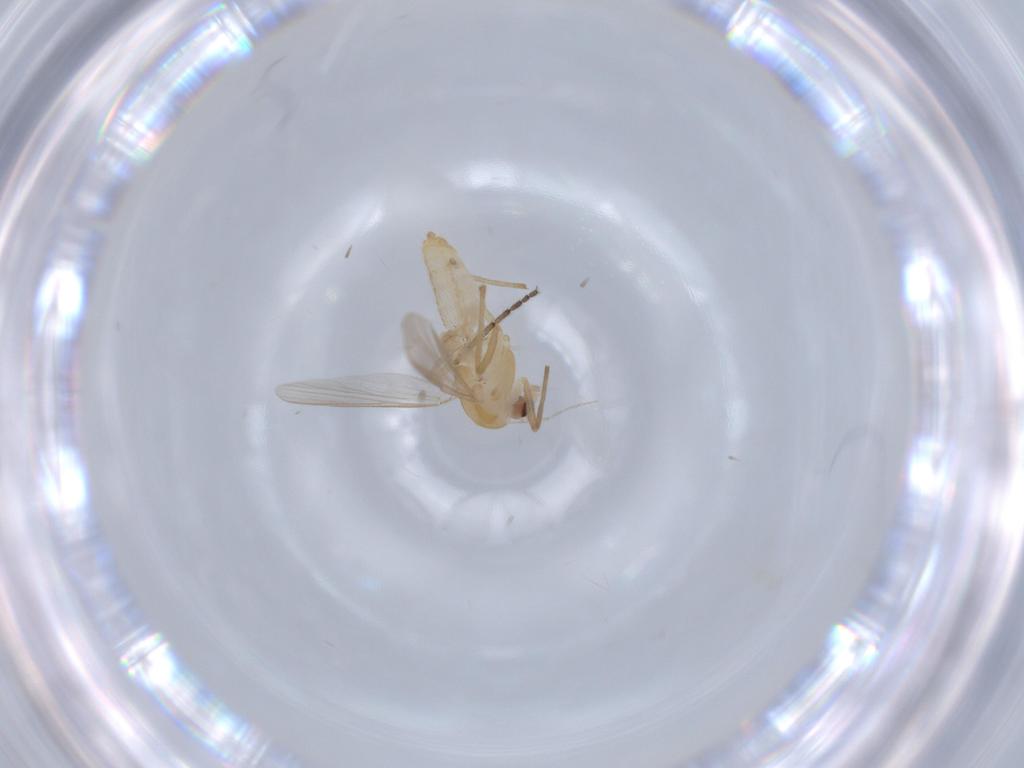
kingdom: Animalia
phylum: Arthropoda
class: Insecta
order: Diptera
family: Chironomidae
